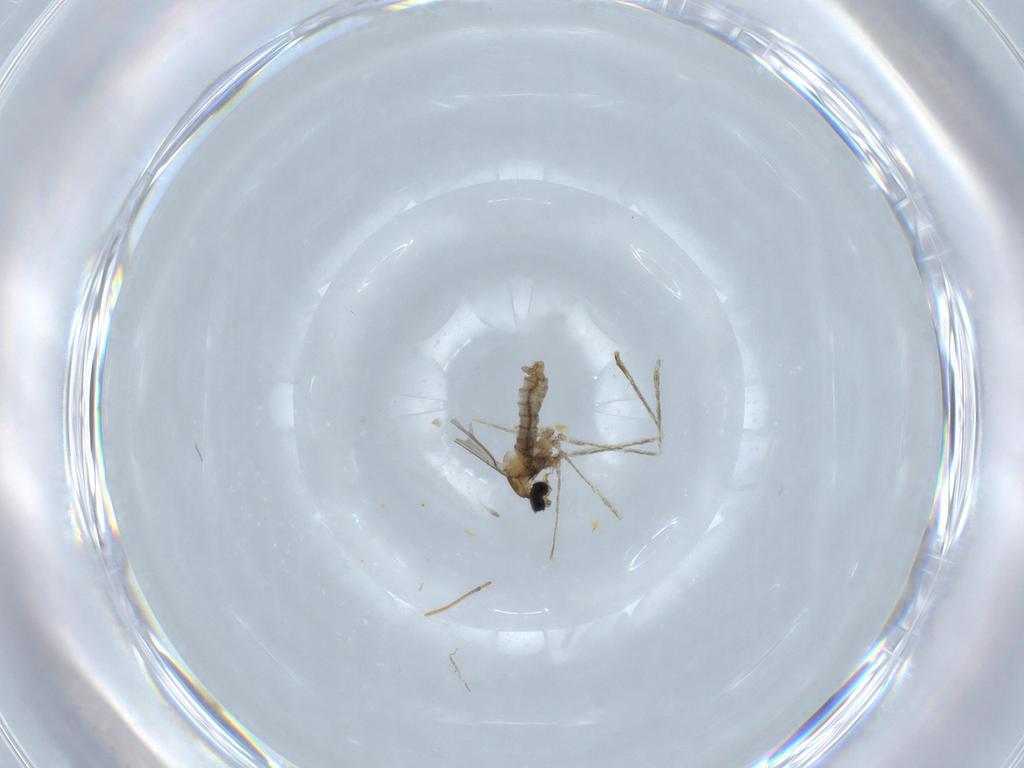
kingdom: Animalia
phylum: Arthropoda
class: Insecta
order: Diptera
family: Cecidomyiidae
